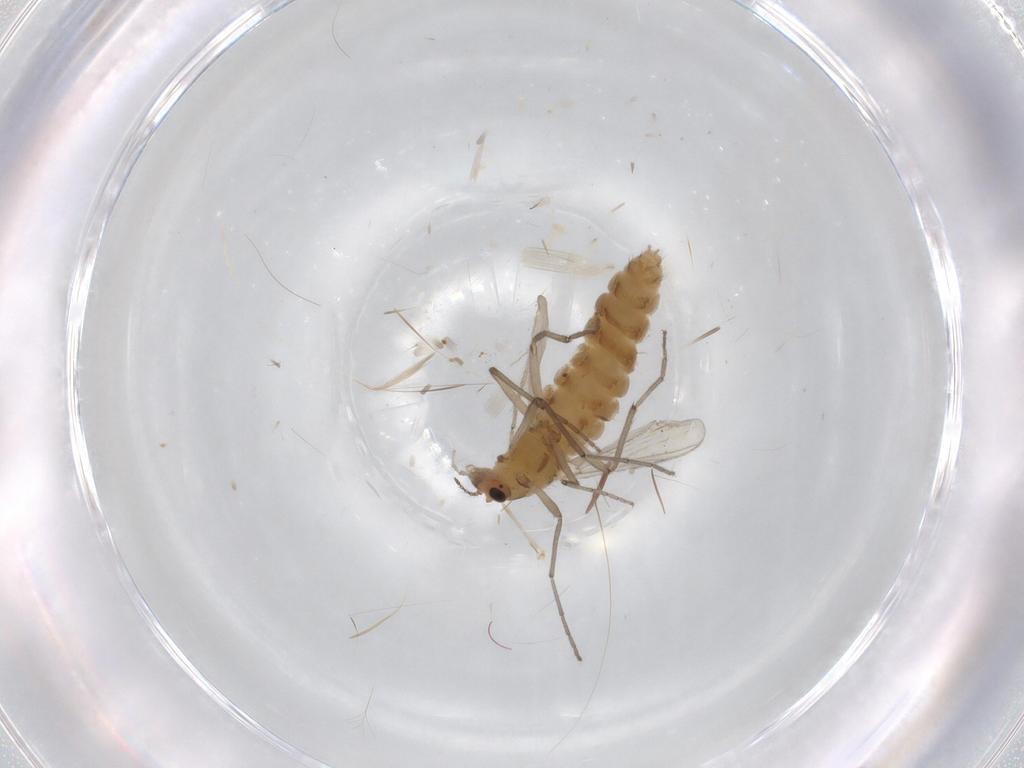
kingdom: Animalia
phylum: Arthropoda
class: Insecta
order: Diptera
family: Chironomidae
